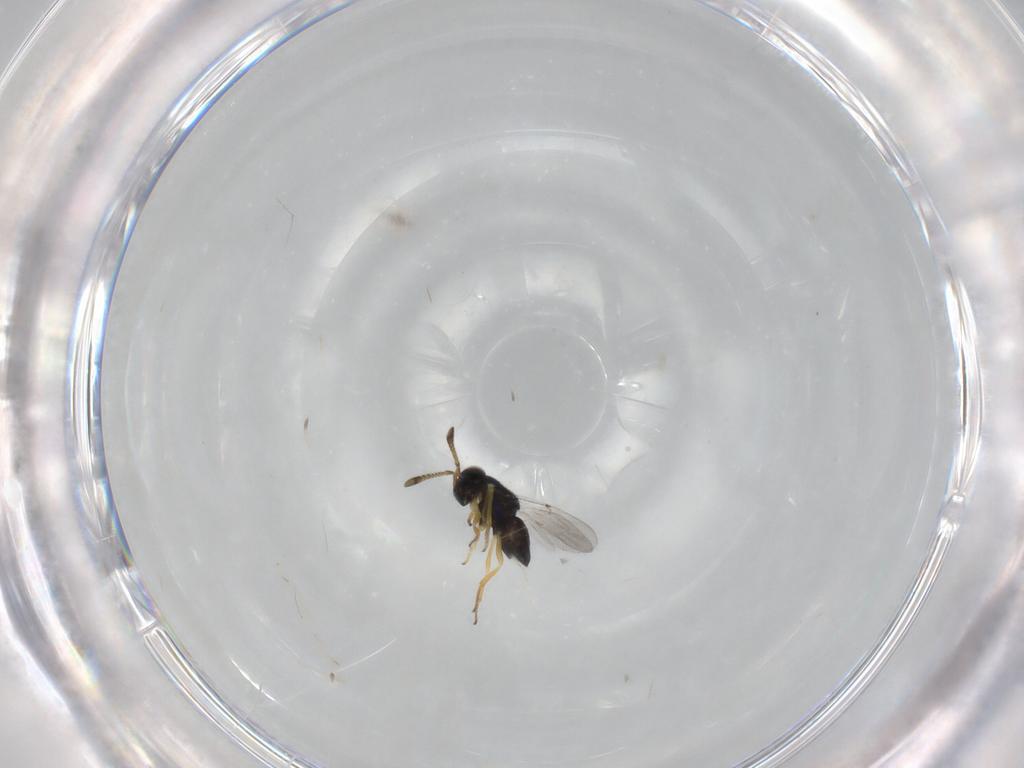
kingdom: Animalia
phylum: Arthropoda
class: Insecta
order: Hymenoptera
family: Encyrtidae
